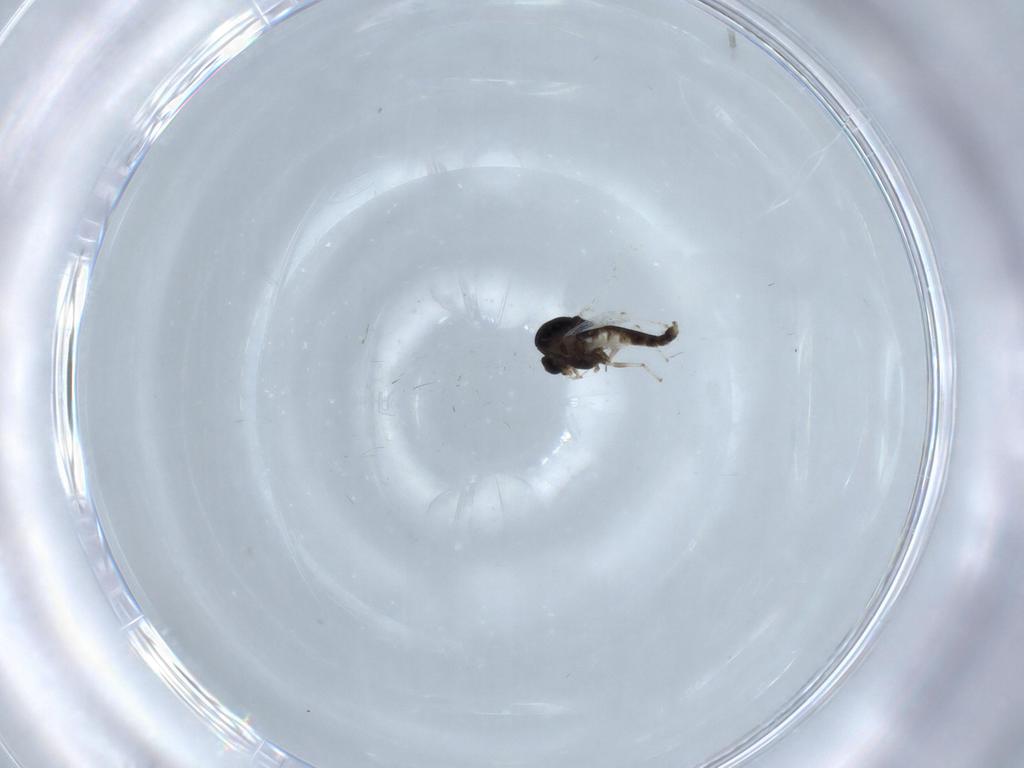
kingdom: Animalia
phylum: Arthropoda
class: Insecta
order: Diptera
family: Chironomidae
